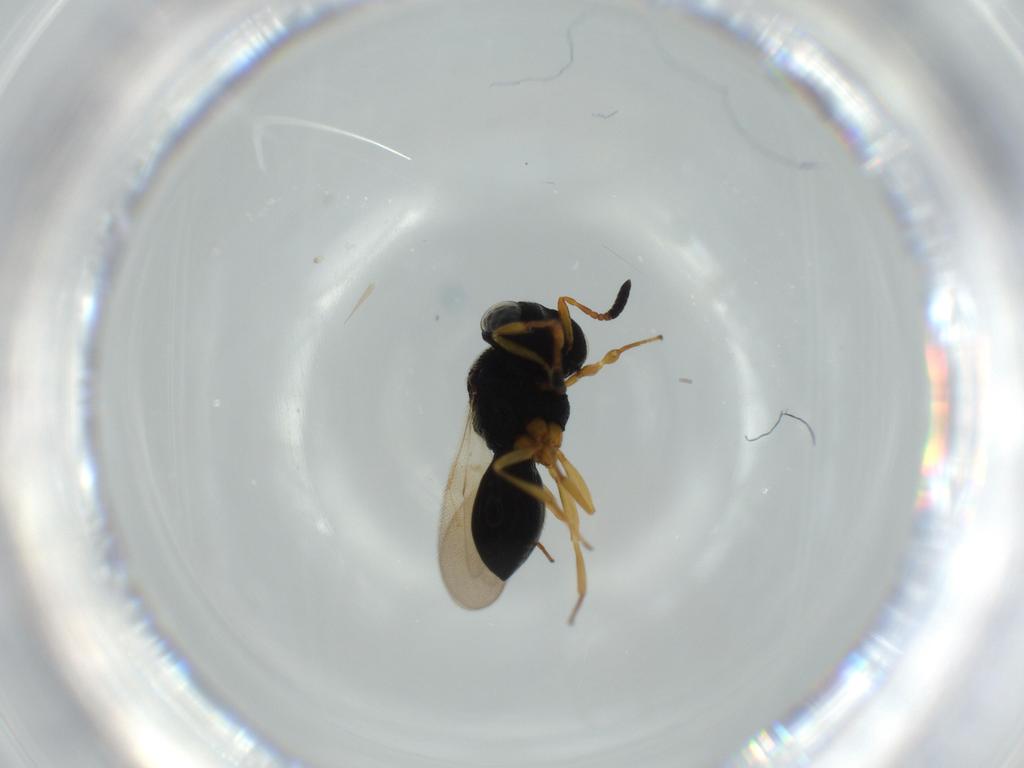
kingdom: Animalia
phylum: Arthropoda
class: Insecta
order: Hymenoptera
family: Scelionidae
